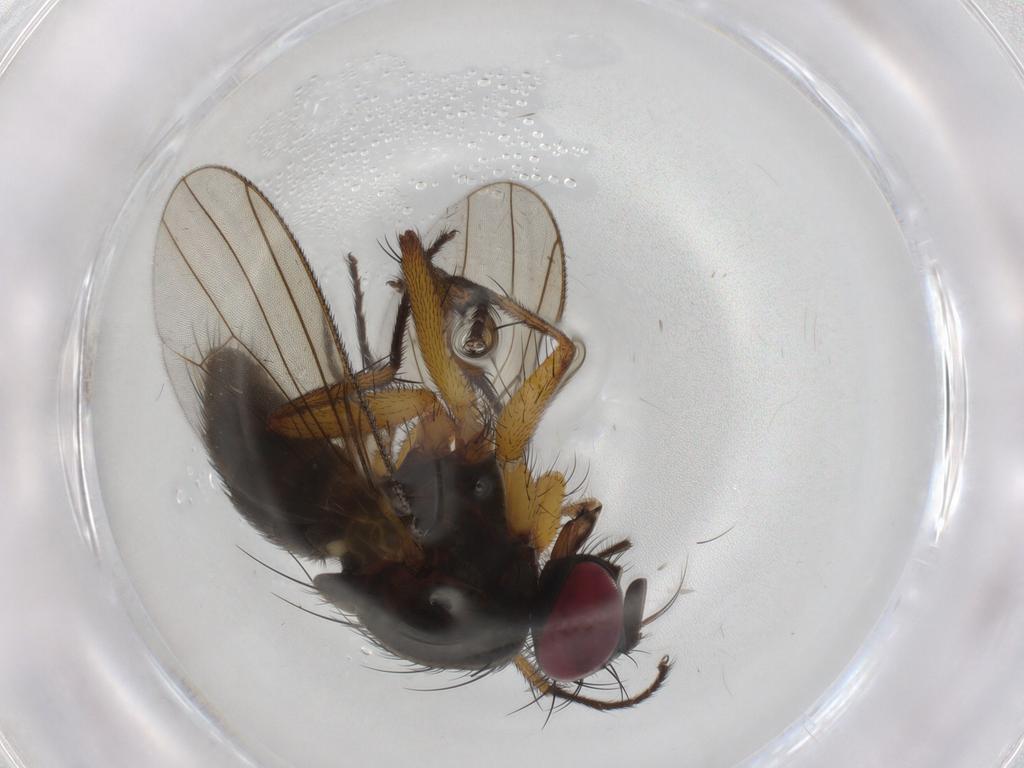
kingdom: Animalia
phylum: Arthropoda
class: Insecta
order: Diptera
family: Muscidae
